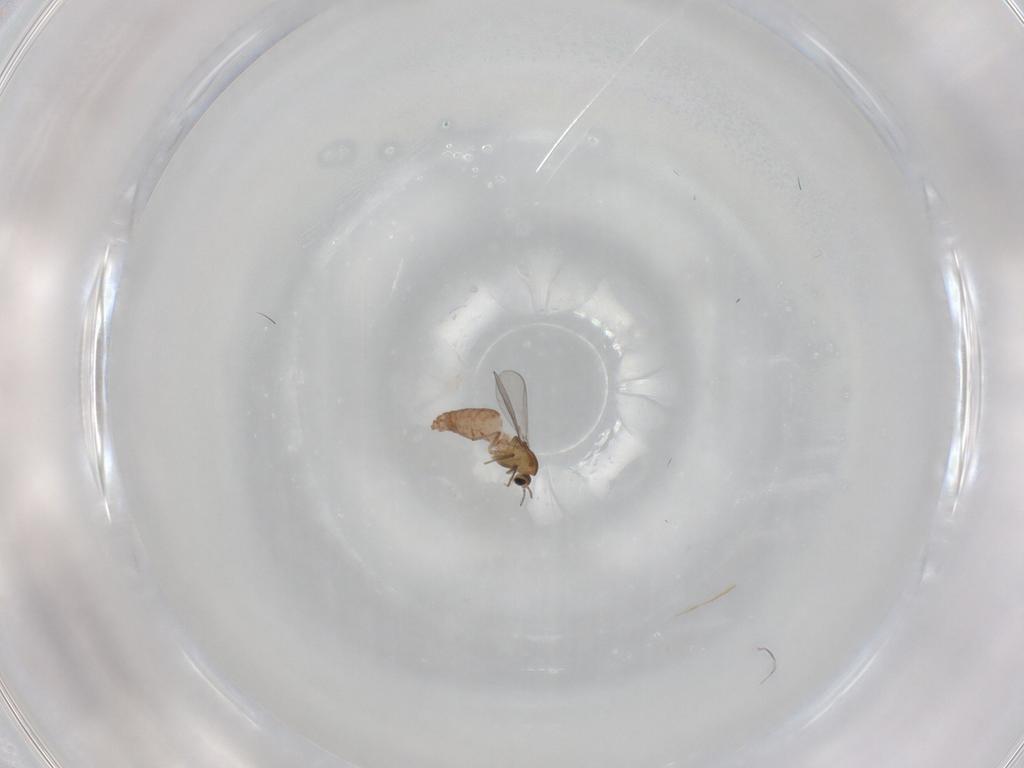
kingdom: Animalia
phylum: Arthropoda
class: Insecta
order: Diptera
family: Chironomidae
